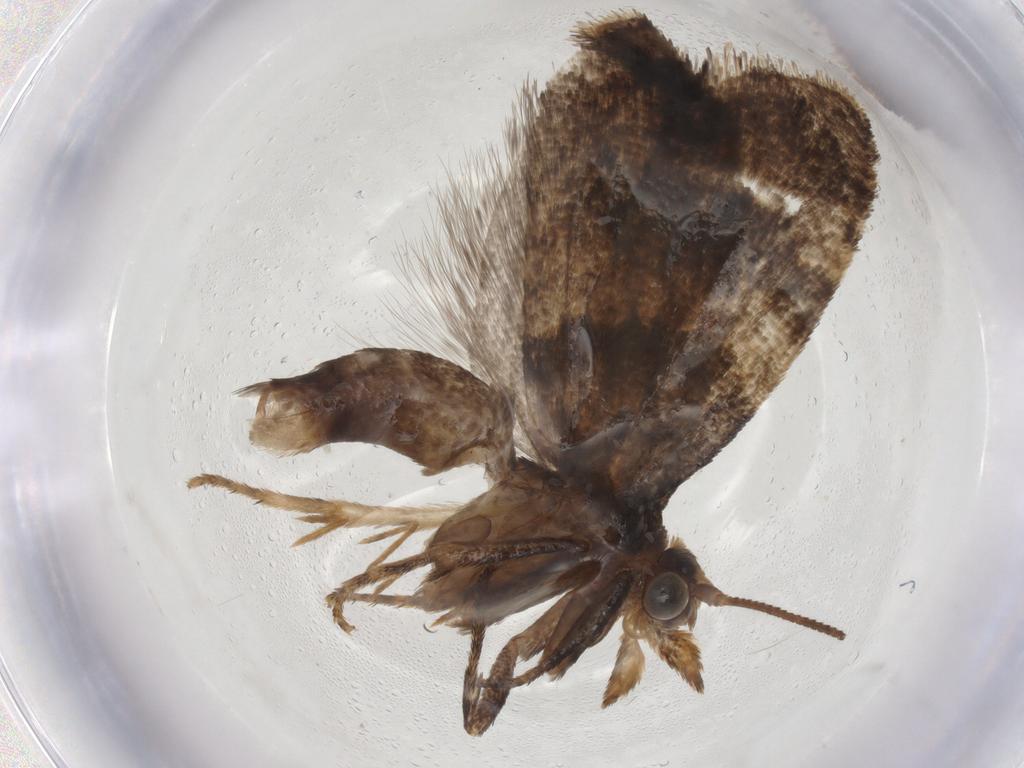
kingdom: Animalia
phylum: Arthropoda
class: Insecta
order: Lepidoptera
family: Tortricidae
